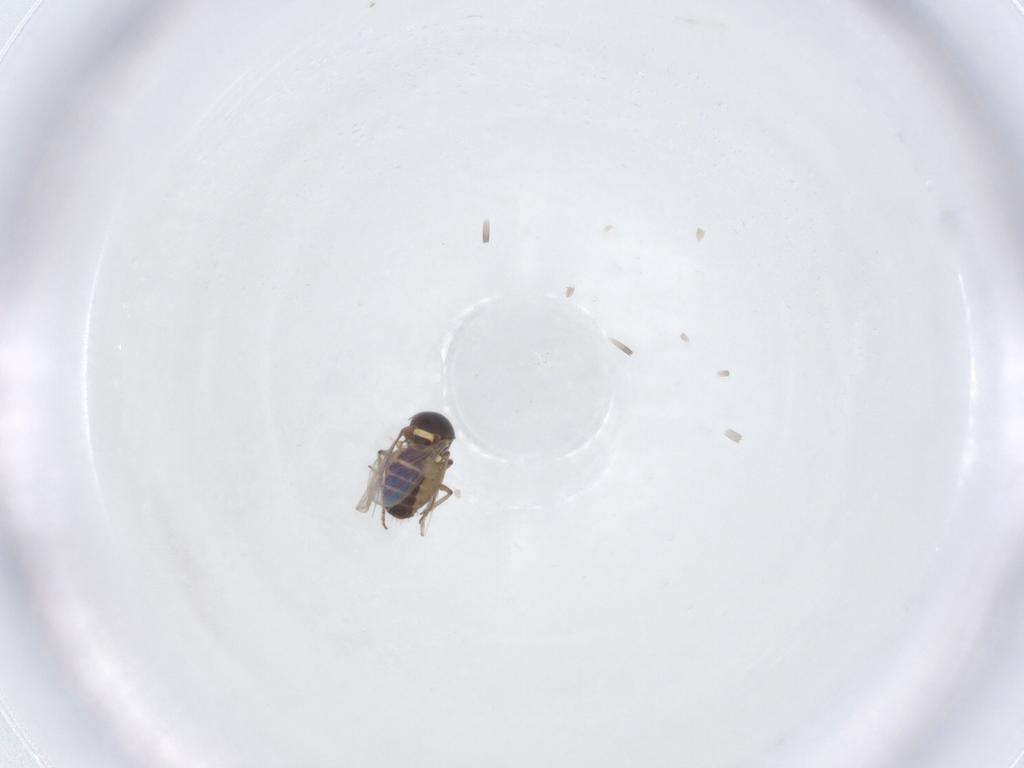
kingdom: Animalia
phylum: Arthropoda
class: Insecta
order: Diptera
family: Ceratopogonidae
